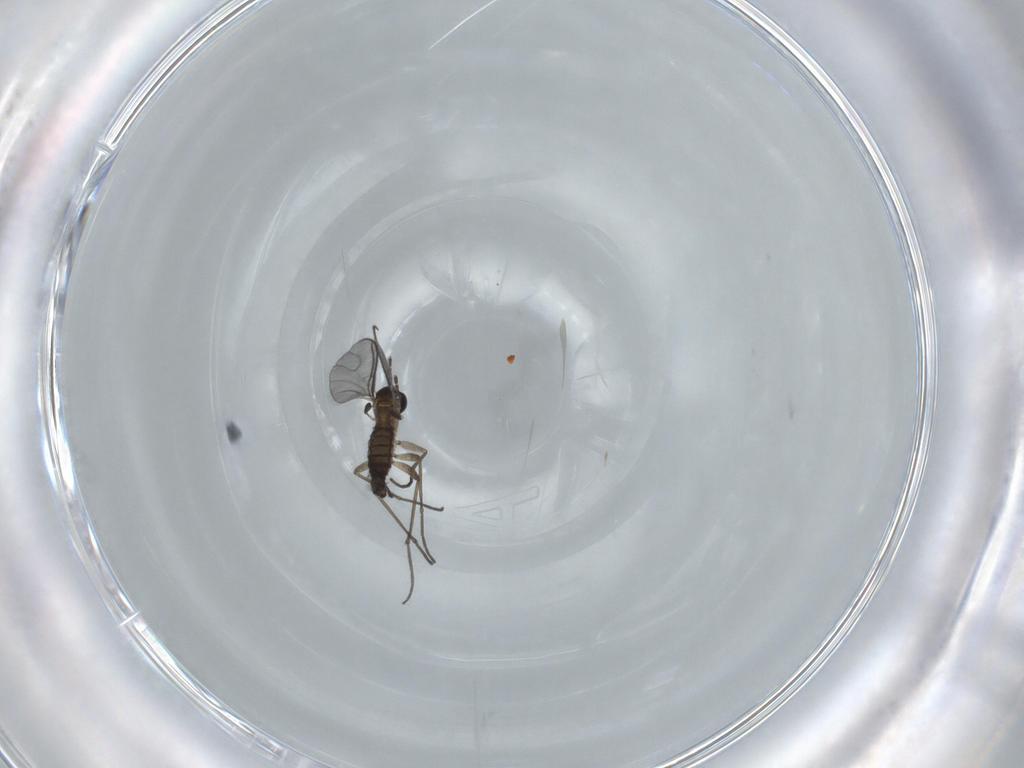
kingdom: Animalia
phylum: Arthropoda
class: Insecta
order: Diptera
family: Sciaridae
